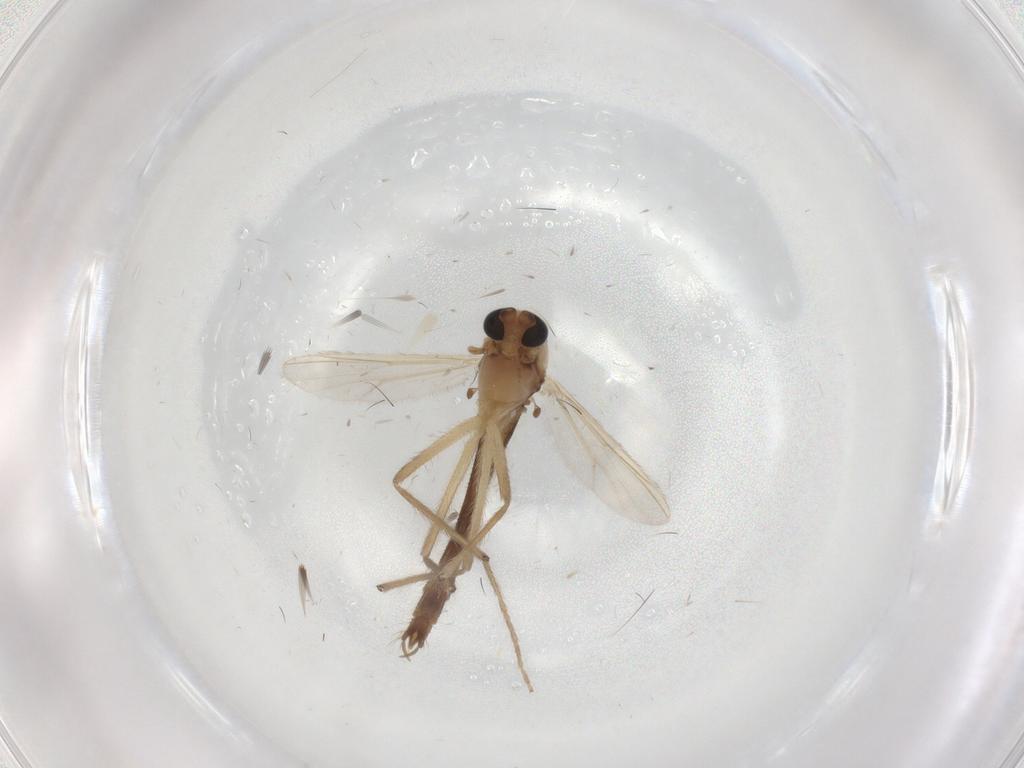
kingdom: Animalia
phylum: Arthropoda
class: Insecta
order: Diptera
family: Chironomidae
